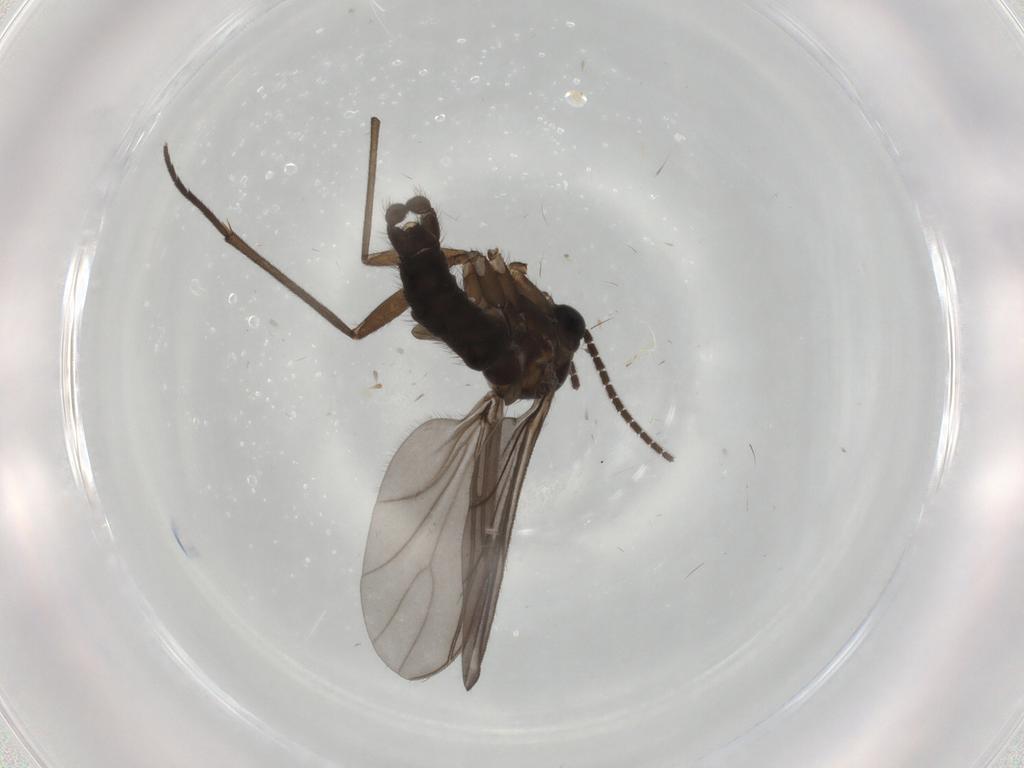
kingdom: Animalia
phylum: Arthropoda
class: Insecta
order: Diptera
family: Sciaridae
